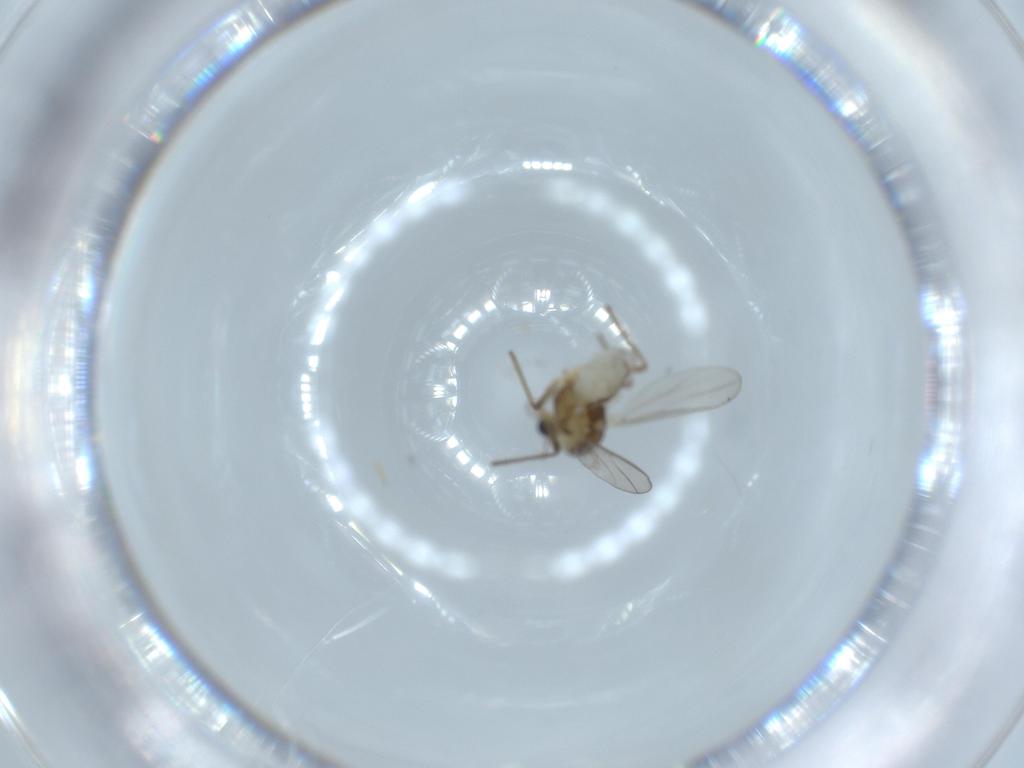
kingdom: Animalia
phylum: Arthropoda
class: Insecta
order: Diptera
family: Chironomidae
